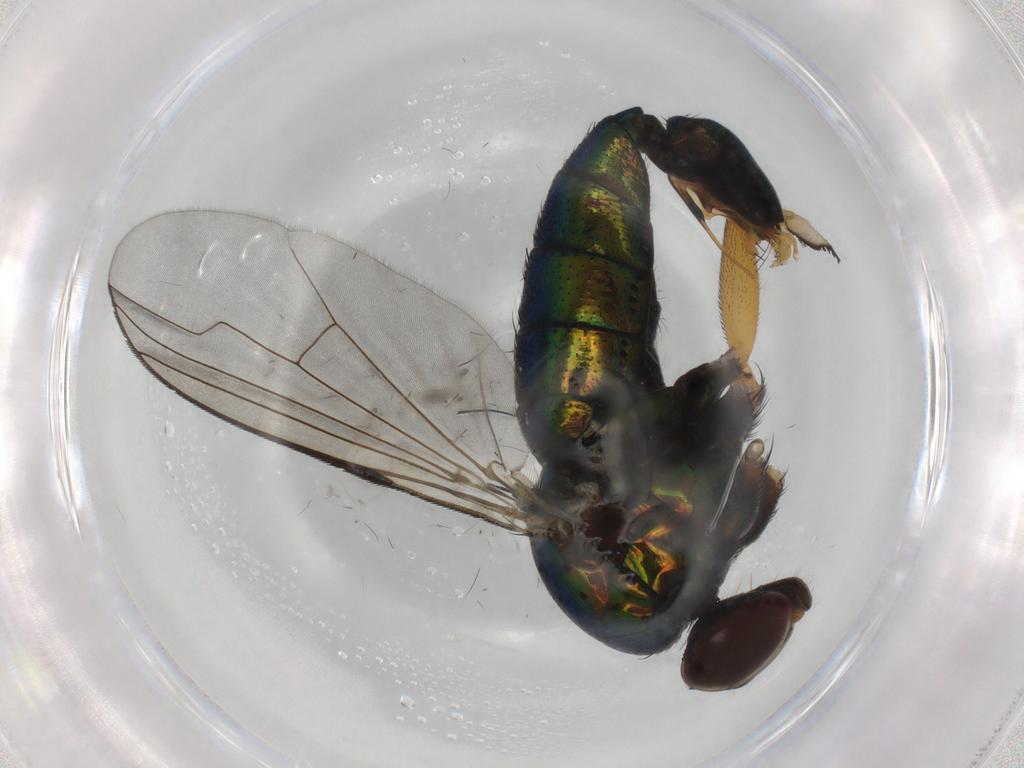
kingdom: Animalia
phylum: Arthropoda
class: Insecta
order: Diptera
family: Dolichopodidae
